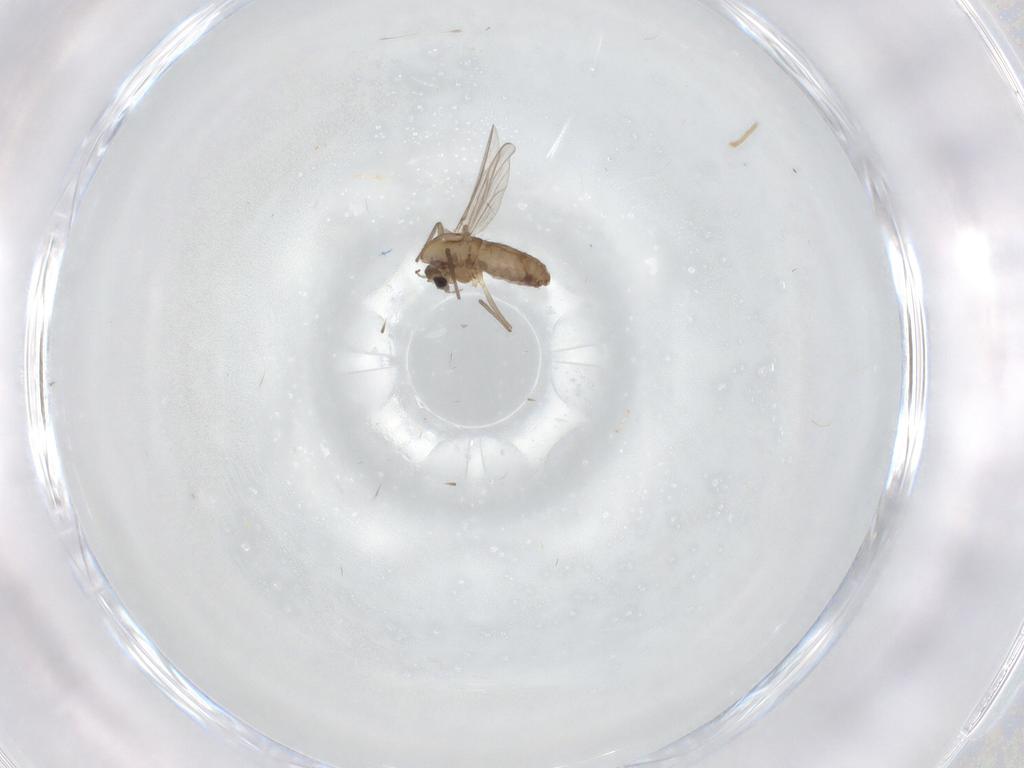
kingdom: Animalia
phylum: Arthropoda
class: Insecta
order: Diptera
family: Chironomidae
